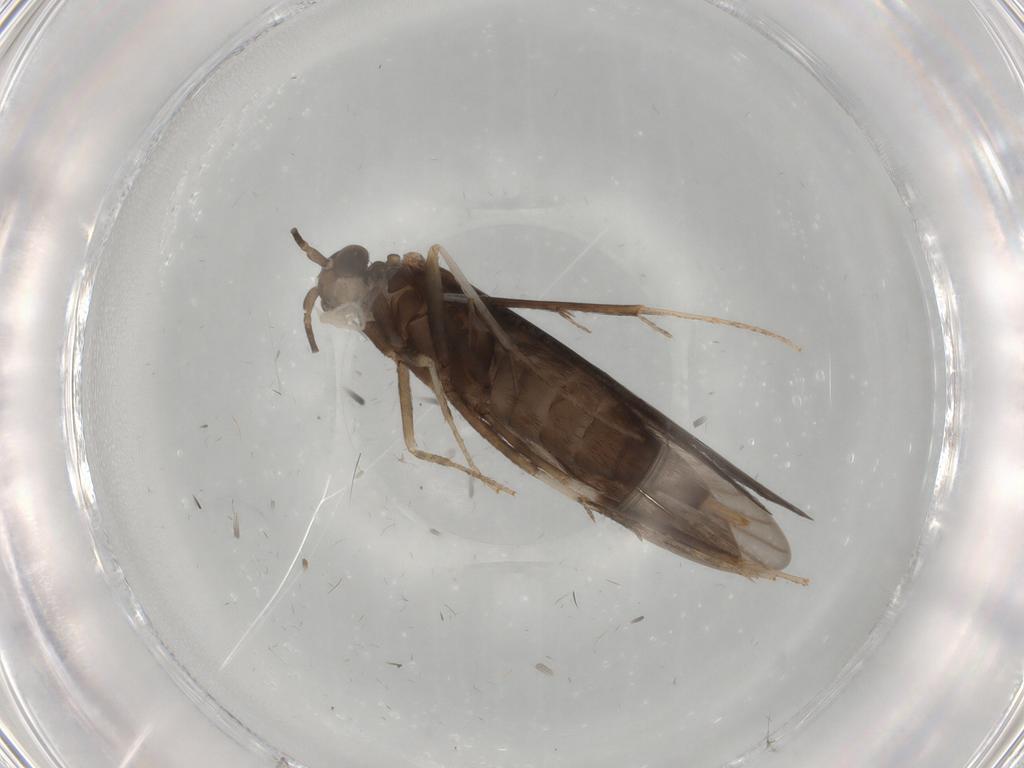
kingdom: Animalia
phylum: Arthropoda
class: Insecta
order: Trichoptera
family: Xiphocentronidae
